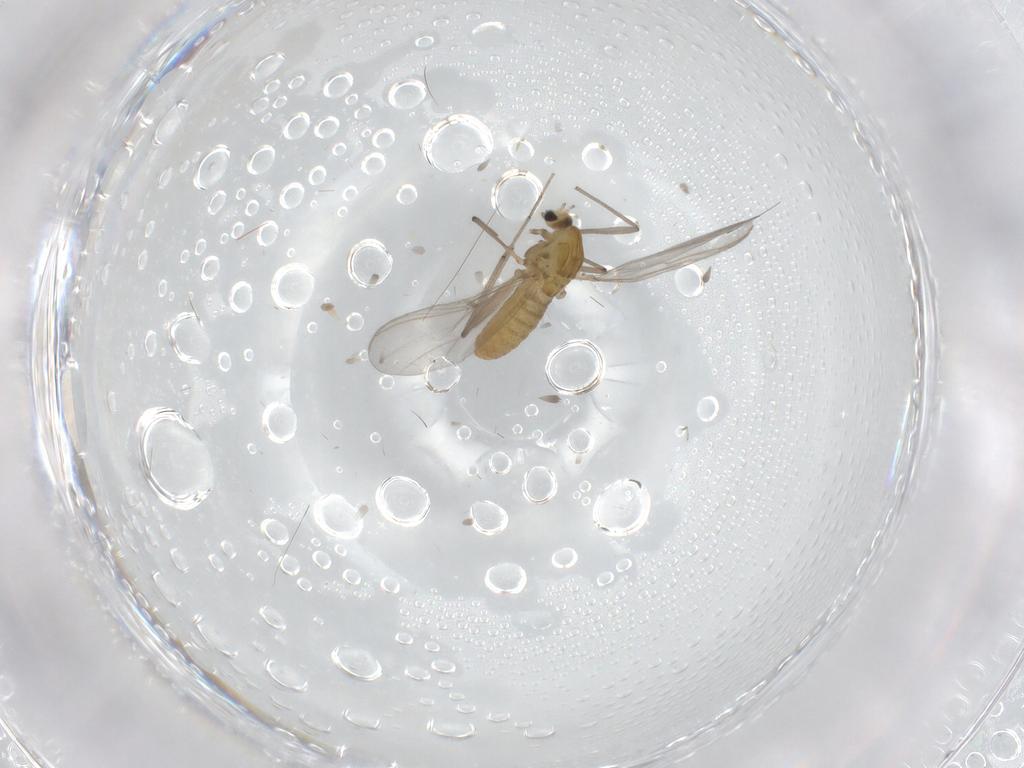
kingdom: Animalia
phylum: Arthropoda
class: Insecta
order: Diptera
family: Chironomidae
